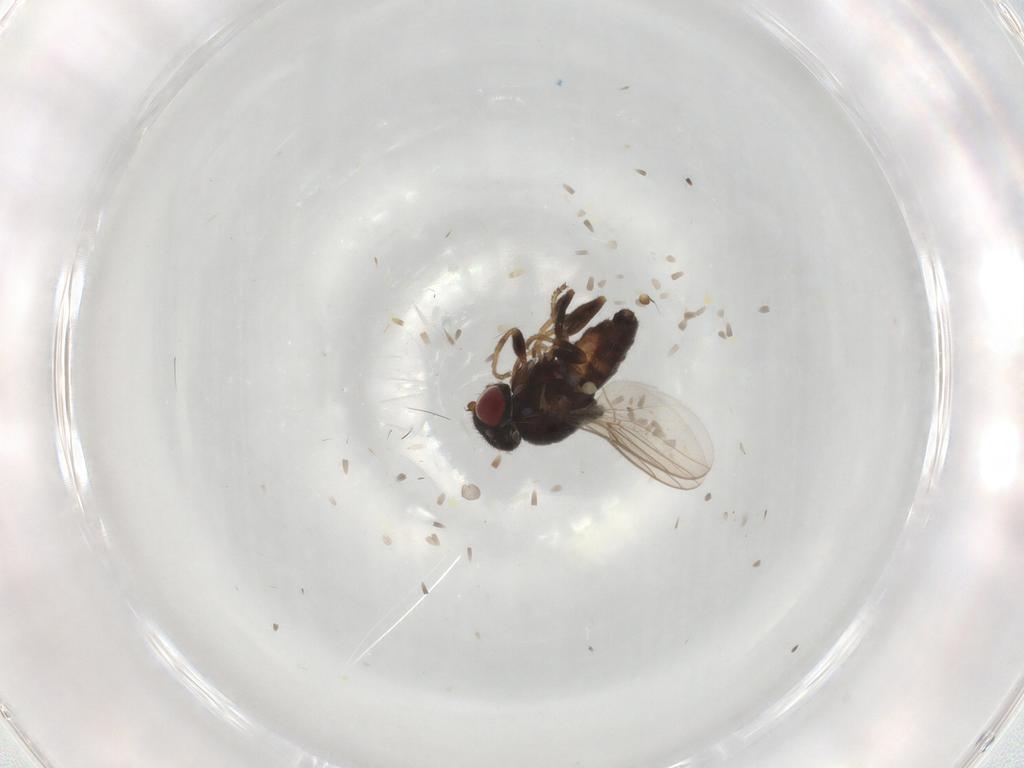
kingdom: Animalia
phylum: Arthropoda
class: Insecta
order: Diptera
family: Chloropidae
